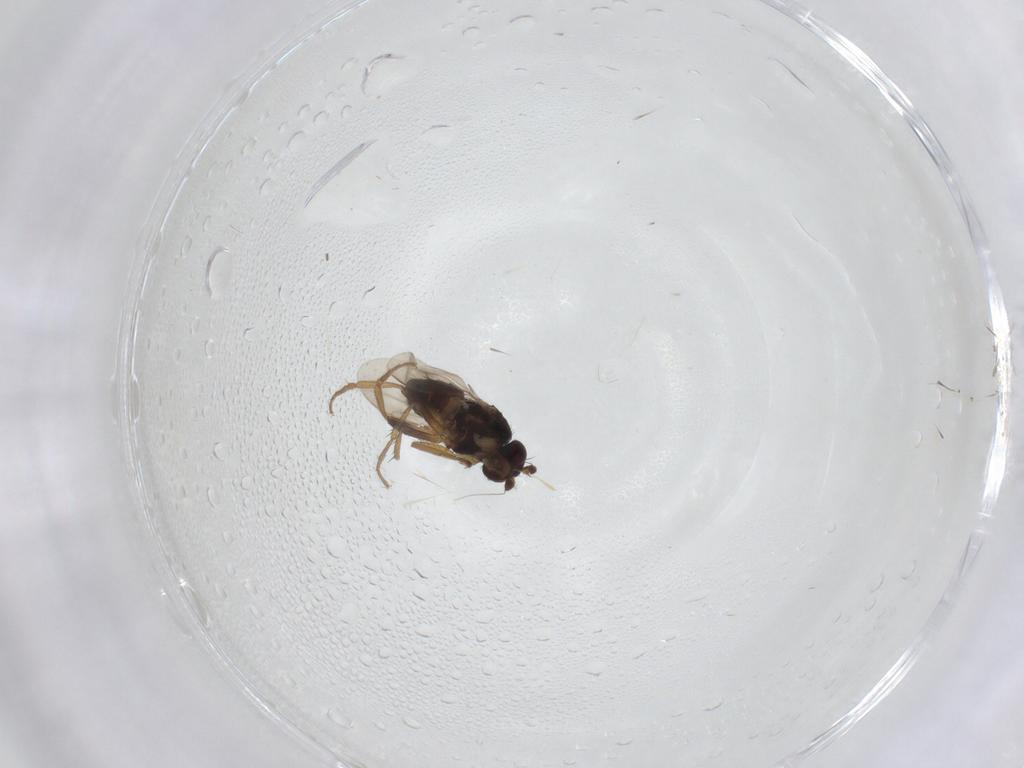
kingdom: Animalia
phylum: Arthropoda
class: Insecta
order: Diptera
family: Sphaeroceridae
